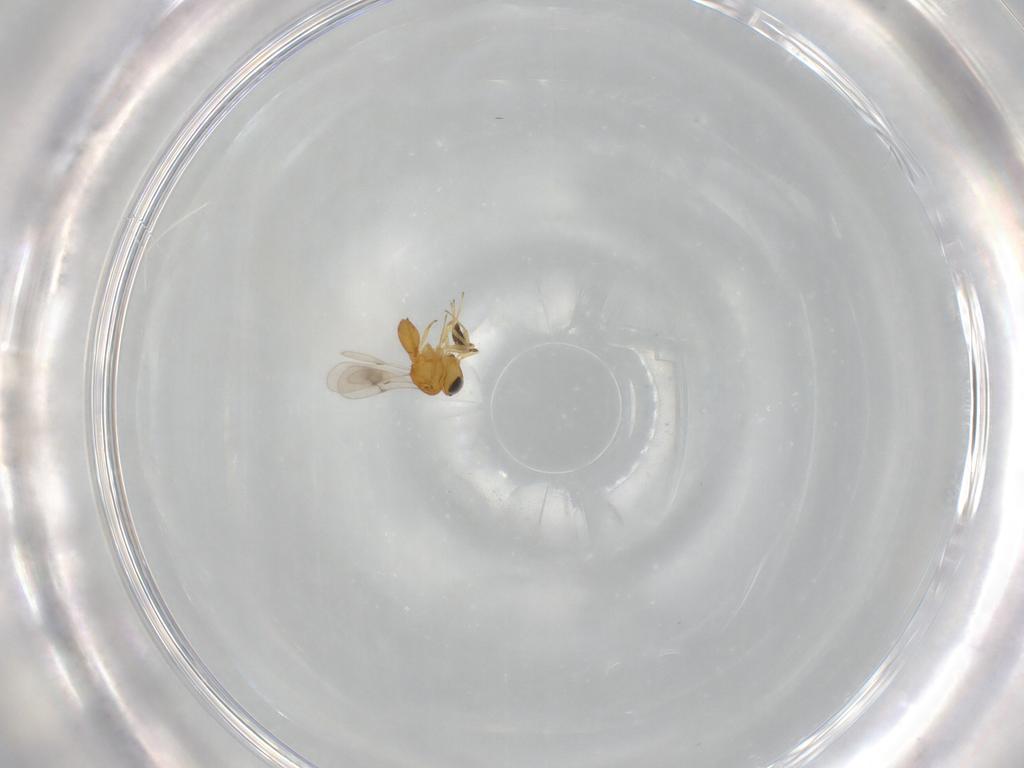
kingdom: Animalia
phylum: Arthropoda
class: Insecta
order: Hymenoptera
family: Scelionidae
